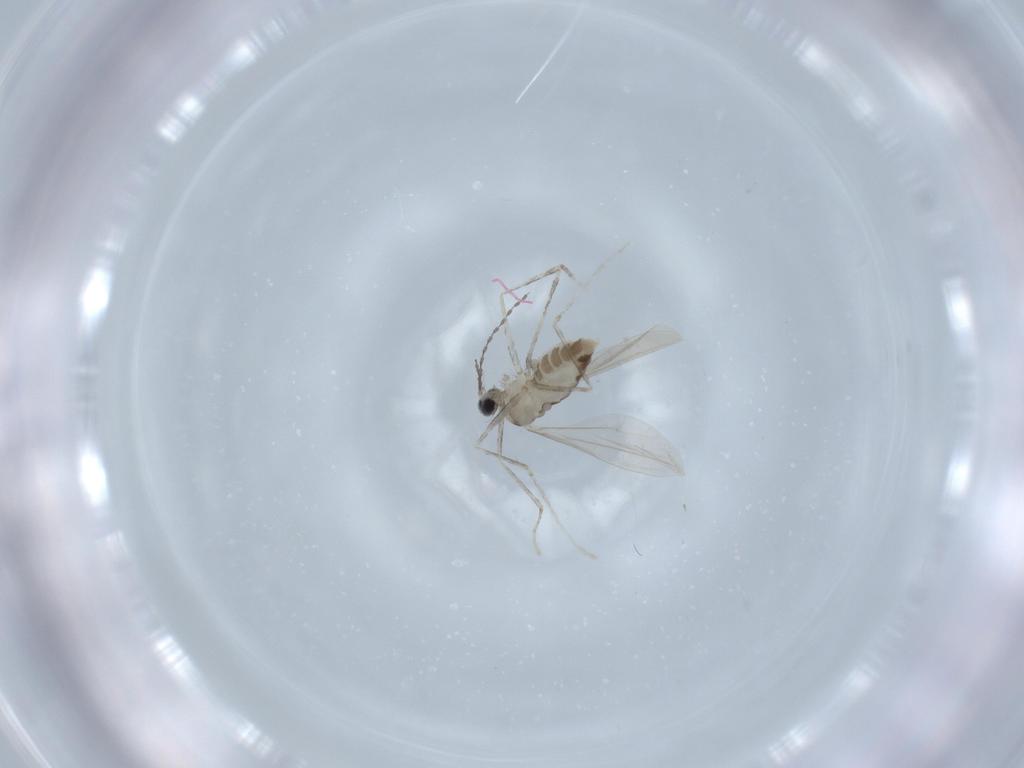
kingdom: Animalia
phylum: Arthropoda
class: Insecta
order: Diptera
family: Cecidomyiidae
